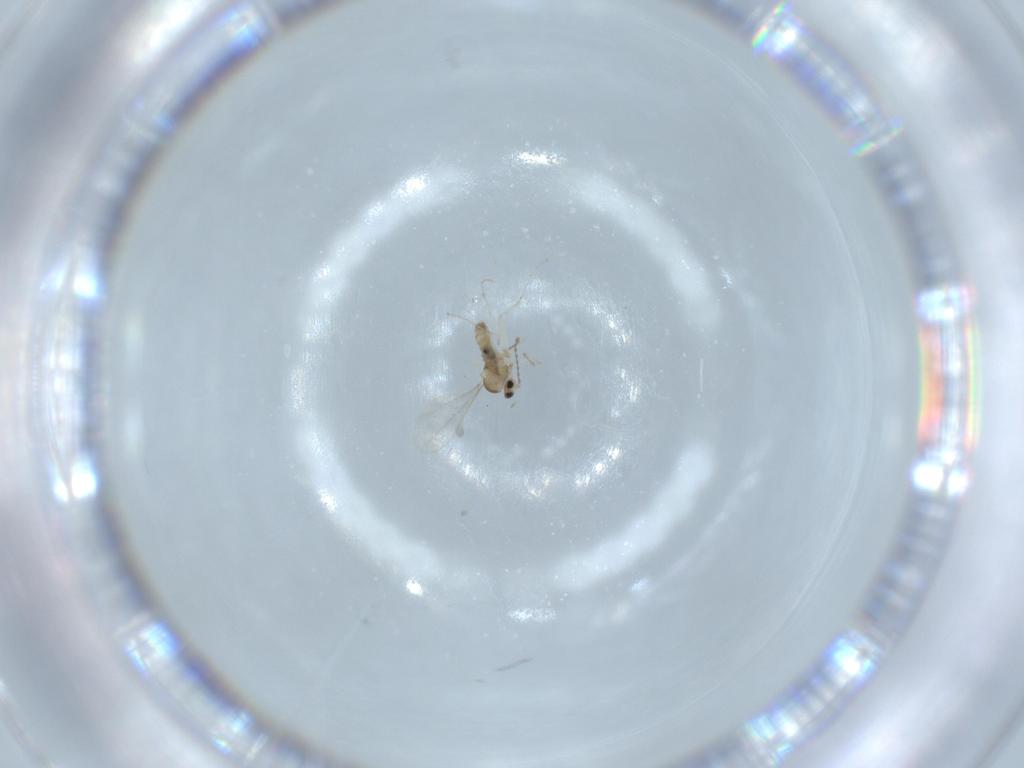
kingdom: Animalia
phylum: Arthropoda
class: Insecta
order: Diptera
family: Cecidomyiidae
